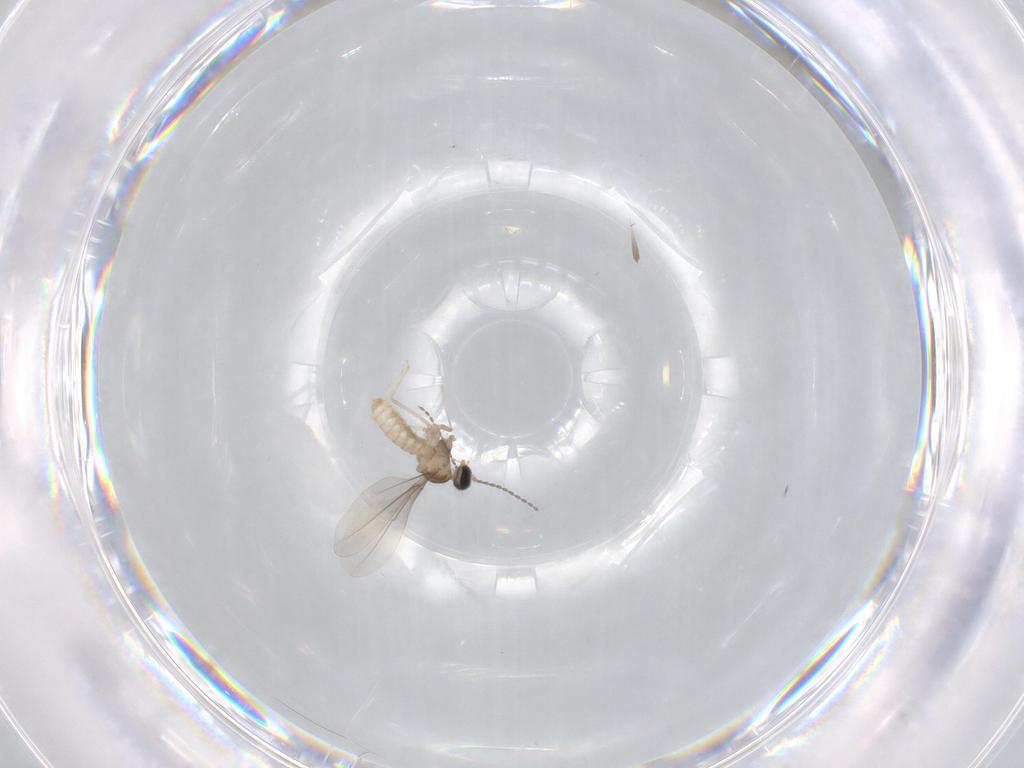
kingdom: Animalia
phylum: Arthropoda
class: Insecta
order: Diptera
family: Cecidomyiidae
